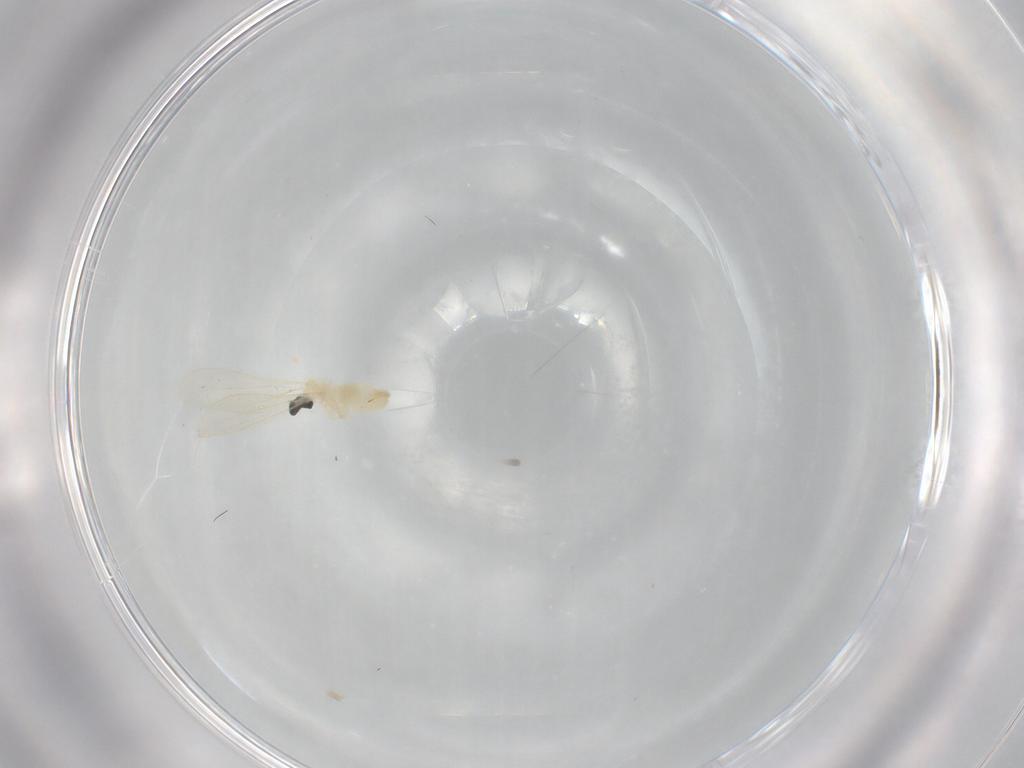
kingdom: Animalia
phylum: Arthropoda
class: Insecta
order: Diptera
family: Cecidomyiidae
